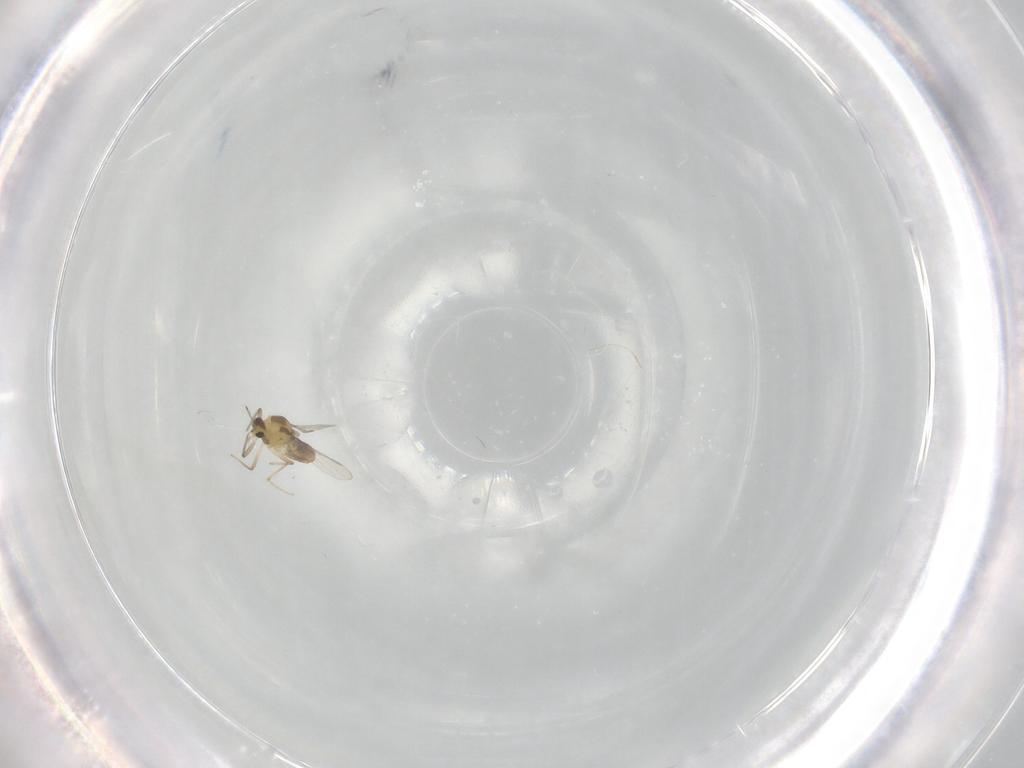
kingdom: Animalia
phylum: Arthropoda
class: Insecta
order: Diptera
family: Chironomidae
